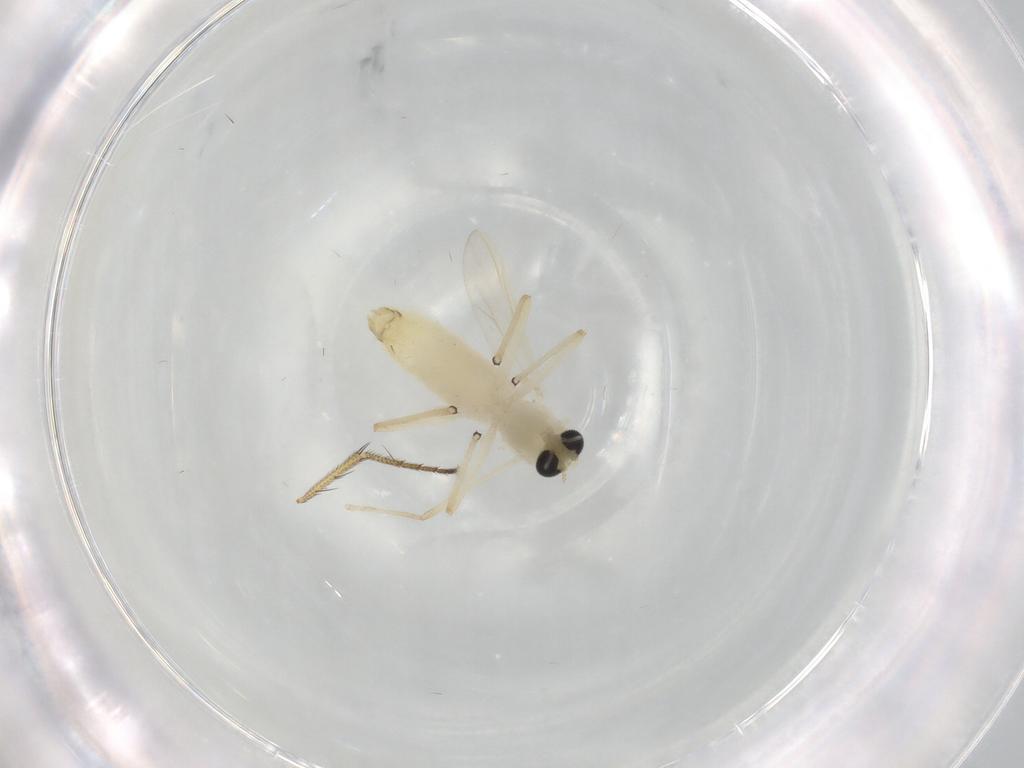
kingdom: Animalia
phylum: Arthropoda
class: Insecta
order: Diptera
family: Chironomidae
